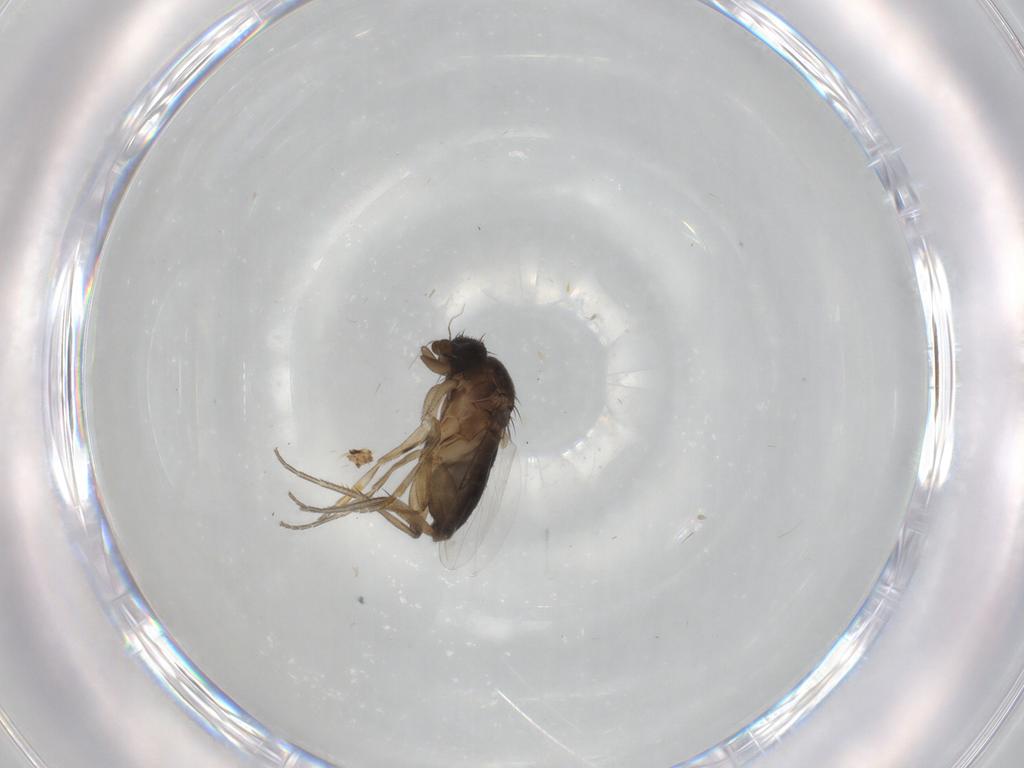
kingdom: Animalia
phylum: Arthropoda
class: Insecta
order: Diptera
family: Phoridae
